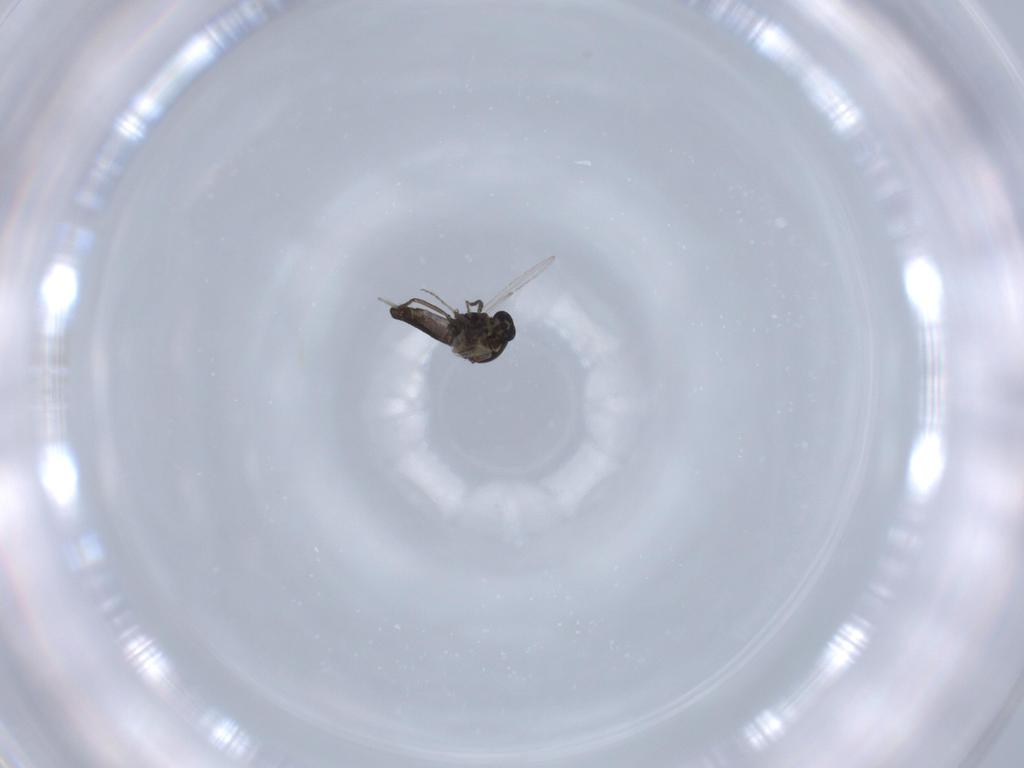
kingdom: Animalia
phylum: Arthropoda
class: Insecta
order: Diptera
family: Ceratopogonidae
